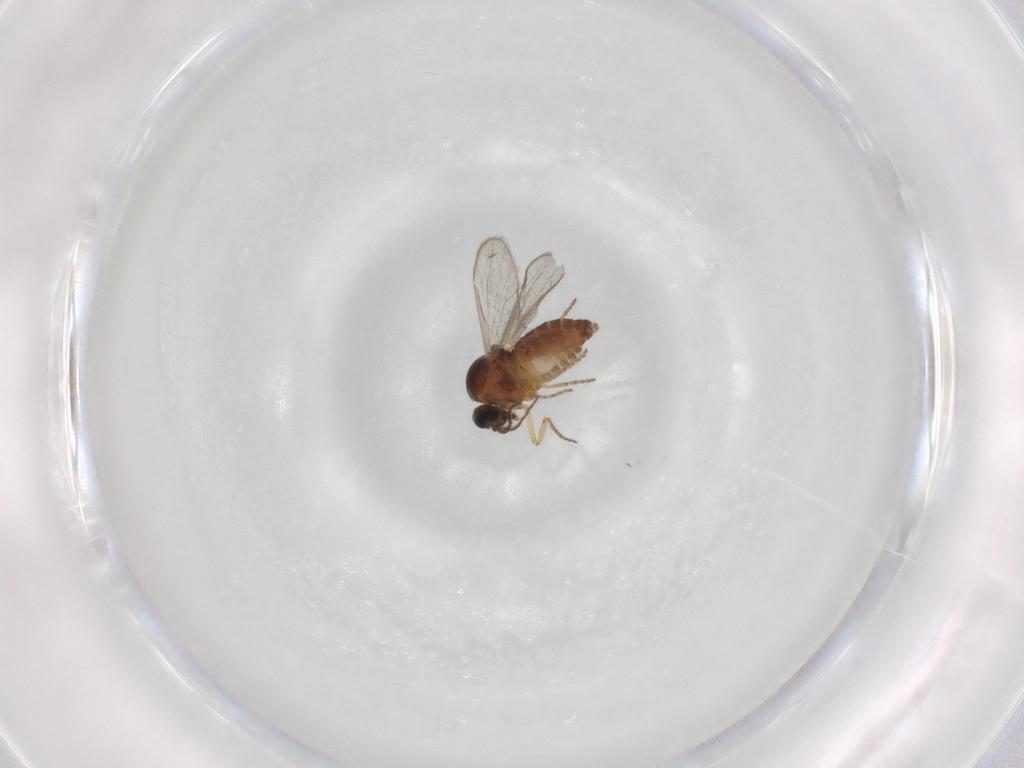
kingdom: Animalia
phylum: Arthropoda
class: Insecta
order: Diptera
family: Ceratopogonidae
